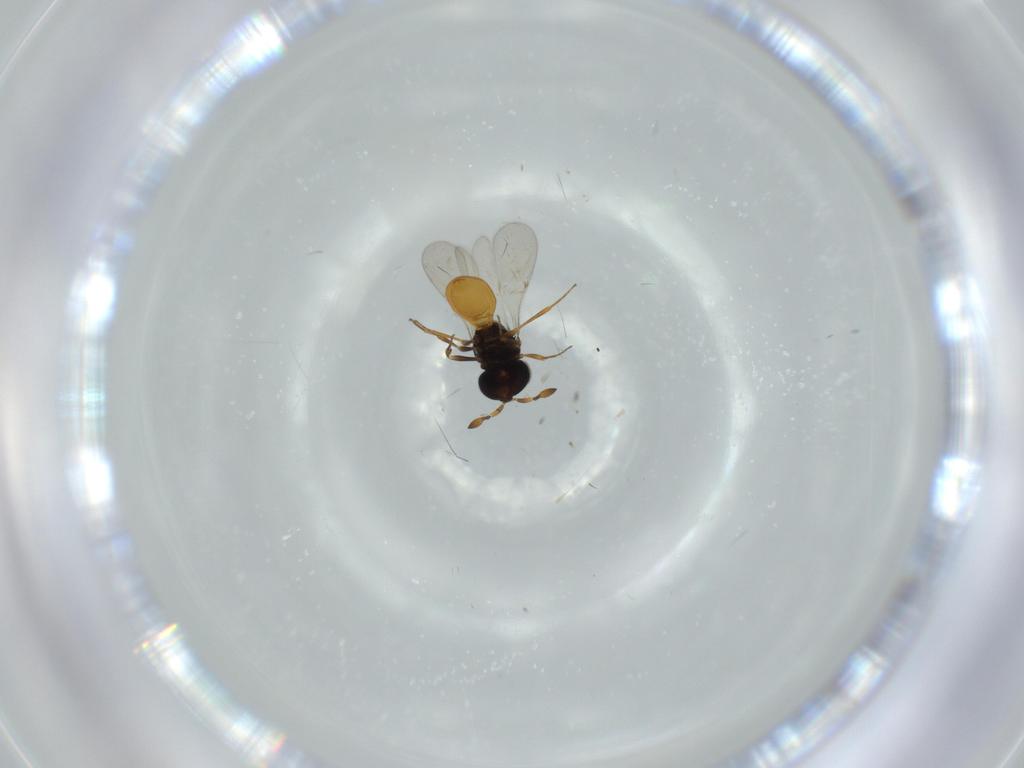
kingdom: Animalia
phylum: Arthropoda
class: Insecta
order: Hymenoptera
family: Scelionidae
